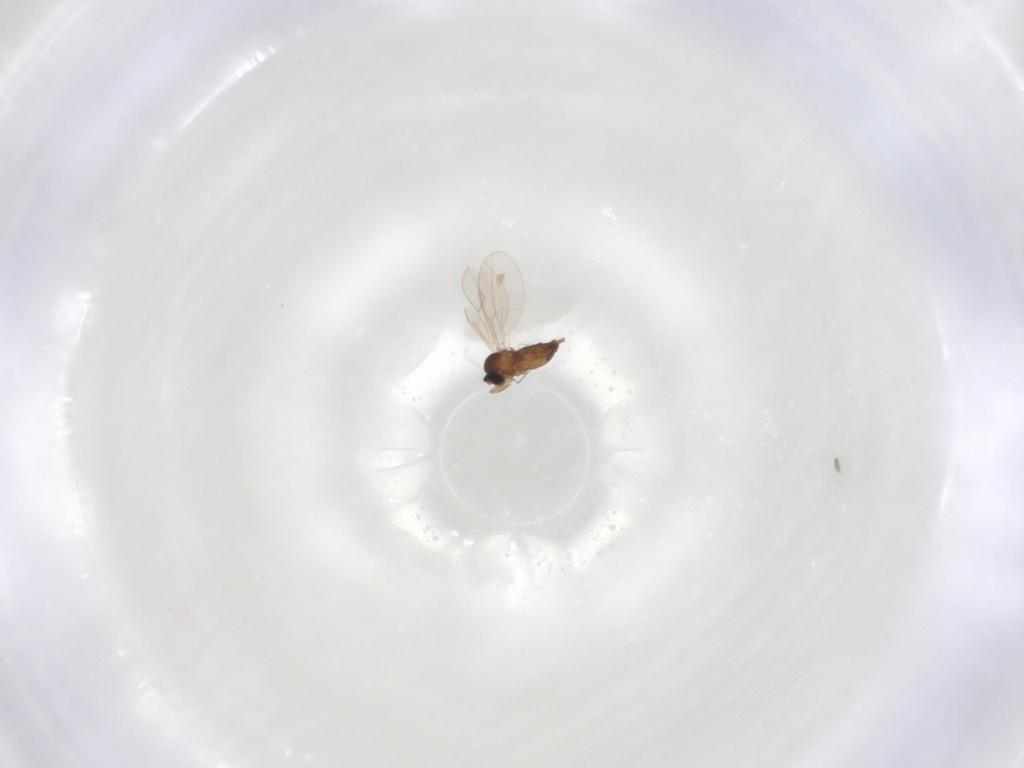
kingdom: Animalia
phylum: Arthropoda
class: Insecta
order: Diptera
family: Cecidomyiidae
